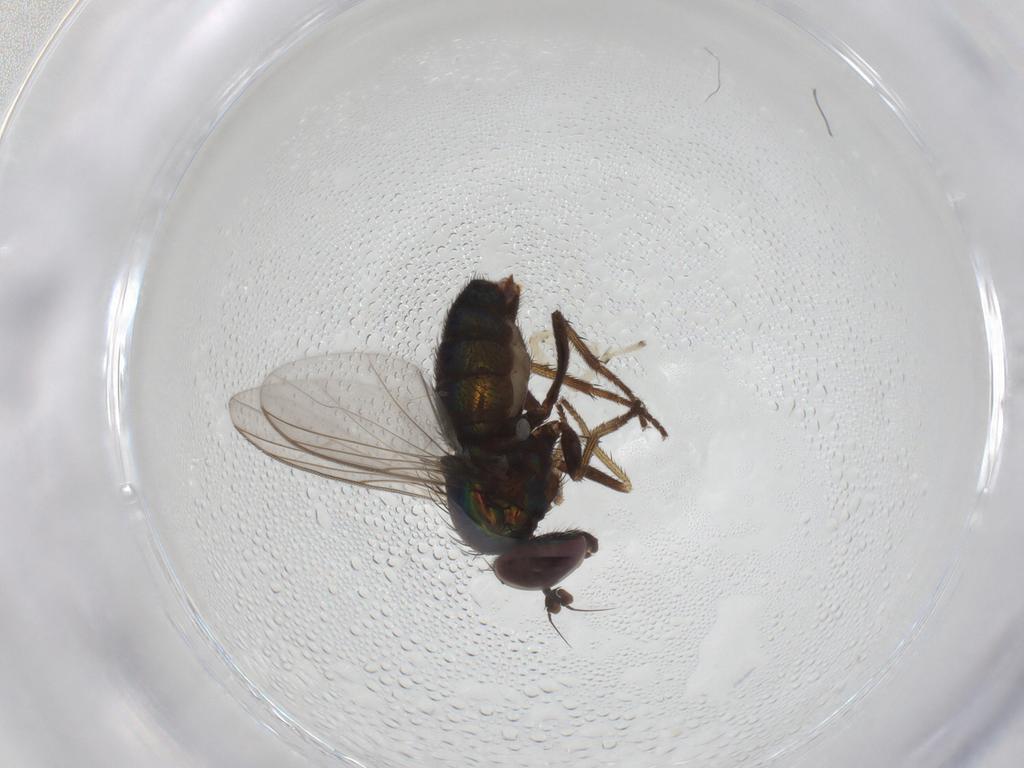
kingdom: Animalia
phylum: Arthropoda
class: Insecta
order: Diptera
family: Dolichopodidae
